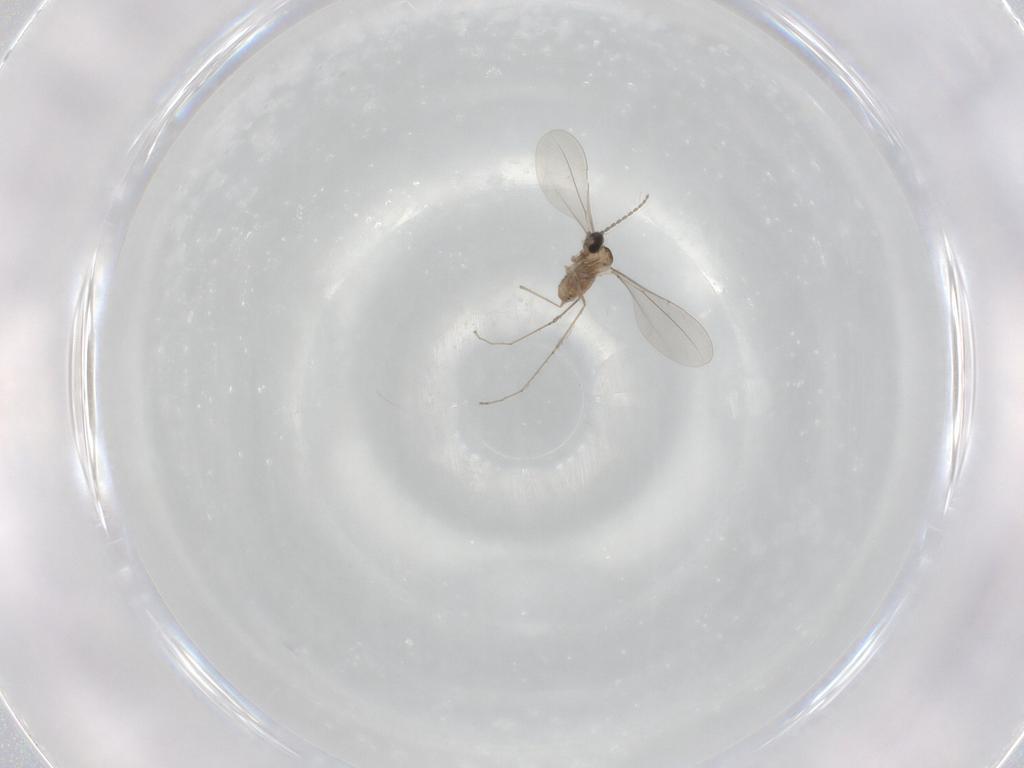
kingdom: Animalia
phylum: Arthropoda
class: Insecta
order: Diptera
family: Cecidomyiidae
